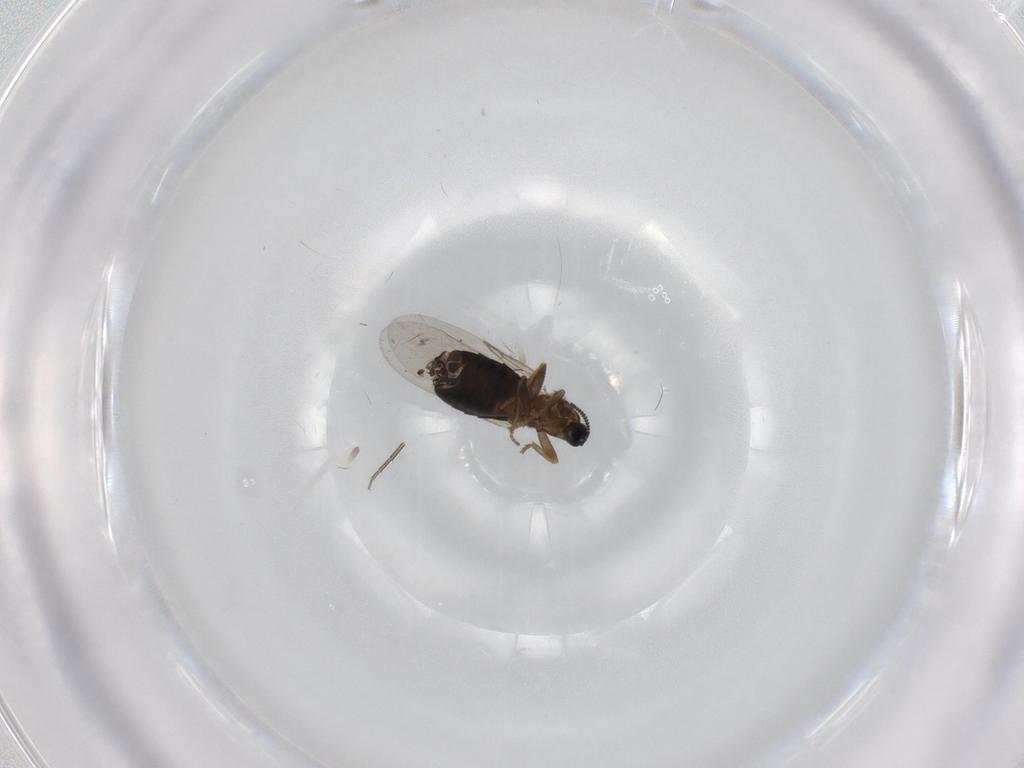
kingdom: Animalia
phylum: Arthropoda
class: Insecta
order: Diptera
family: Scatopsidae
